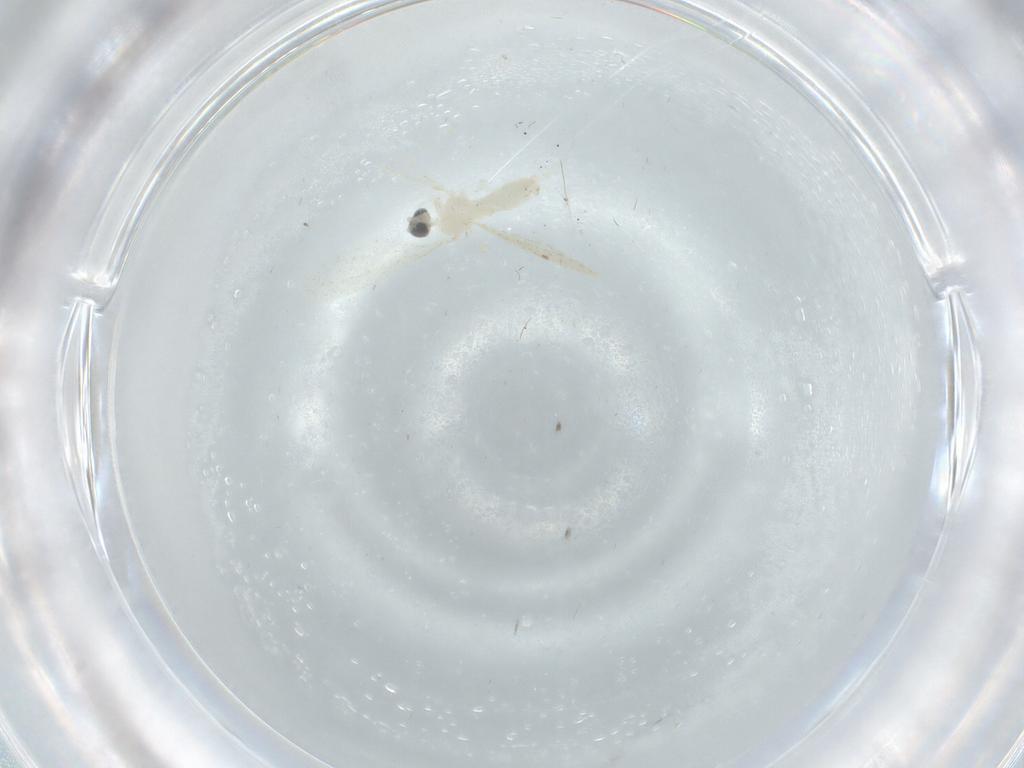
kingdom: Animalia
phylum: Arthropoda
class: Insecta
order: Diptera
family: Cecidomyiidae
